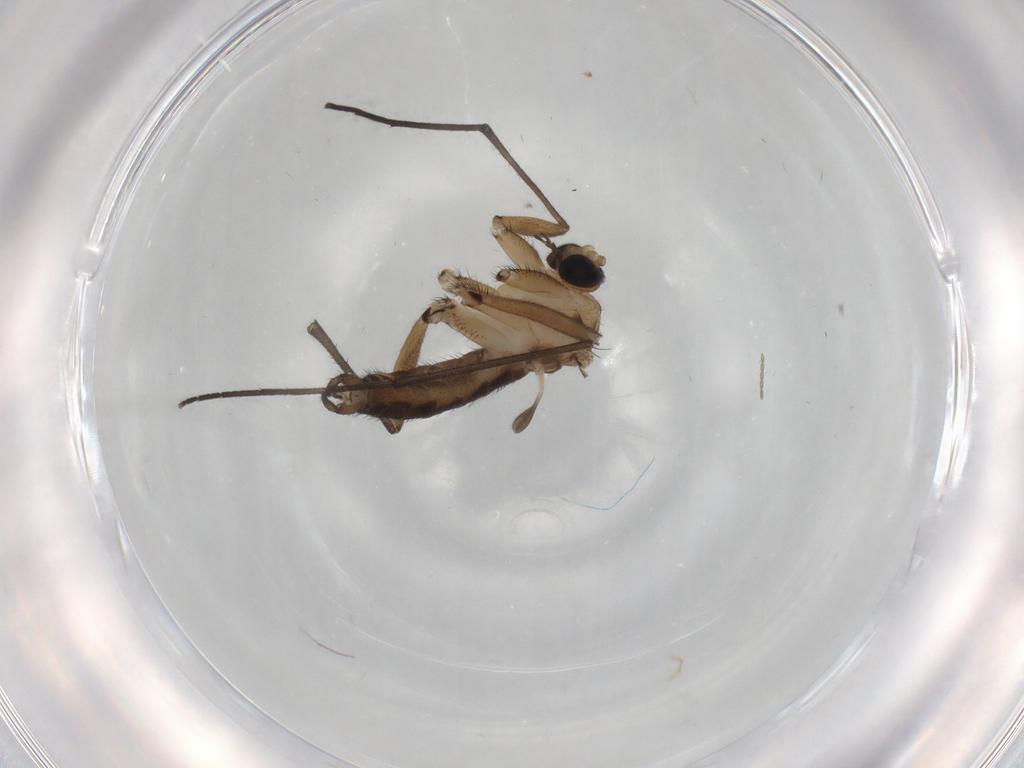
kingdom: Animalia
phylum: Arthropoda
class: Insecta
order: Diptera
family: Cecidomyiidae
